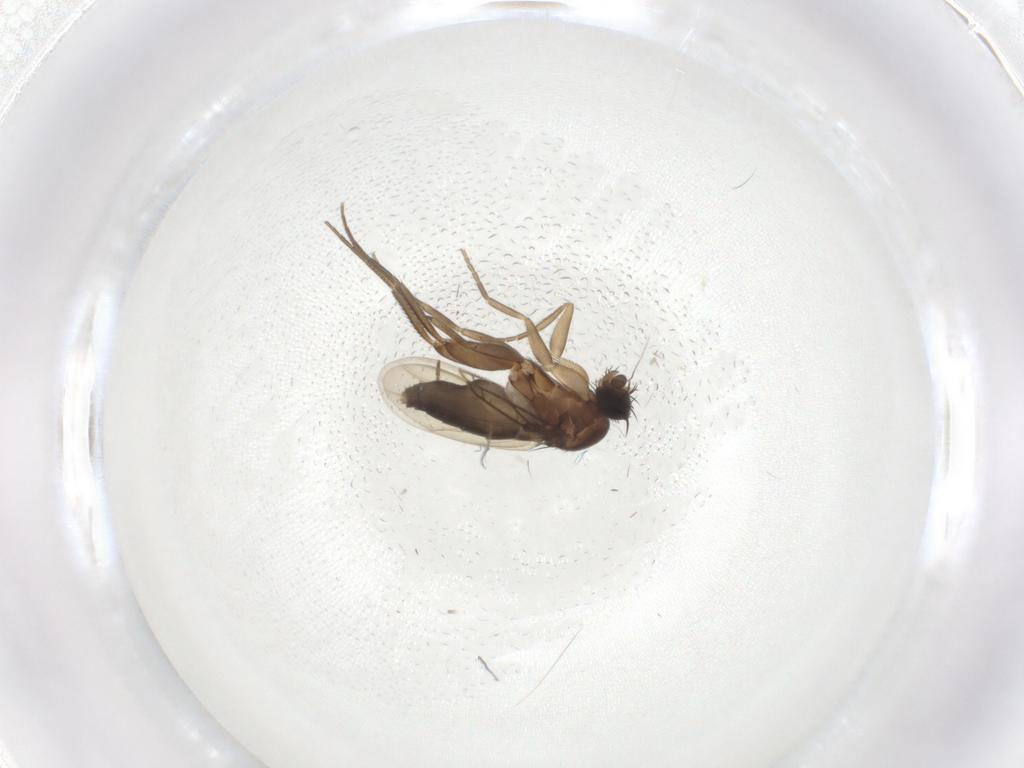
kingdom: Animalia
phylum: Arthropoda
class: Insecta
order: Diptera
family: Phoridae
